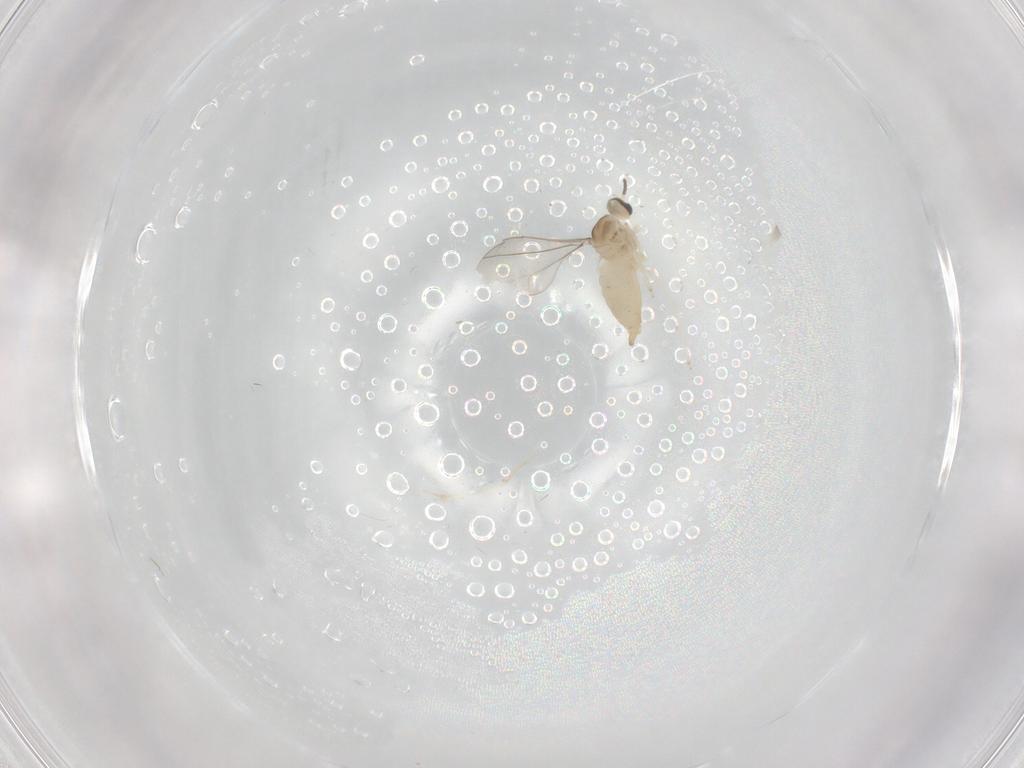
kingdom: Animalia
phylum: Arthropoda
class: Insecta
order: Diptera
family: Cecidomyiidae
